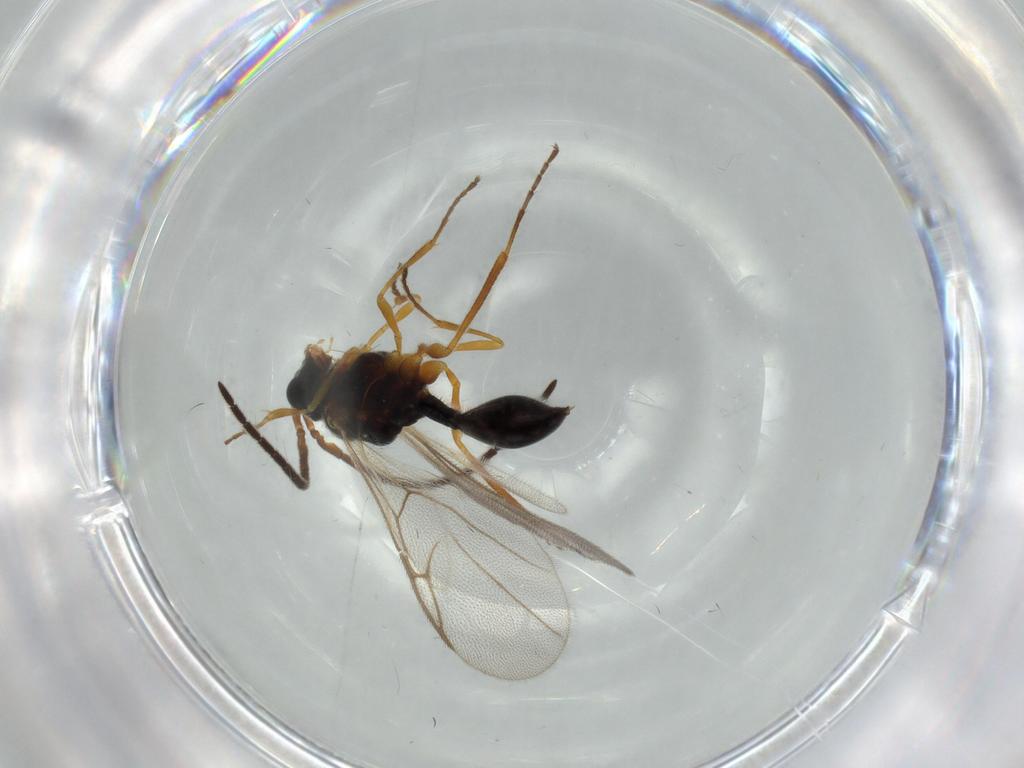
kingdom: Animalia
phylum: Arthropoda
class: Insecta
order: Hymenoptera
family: Diapriidae
